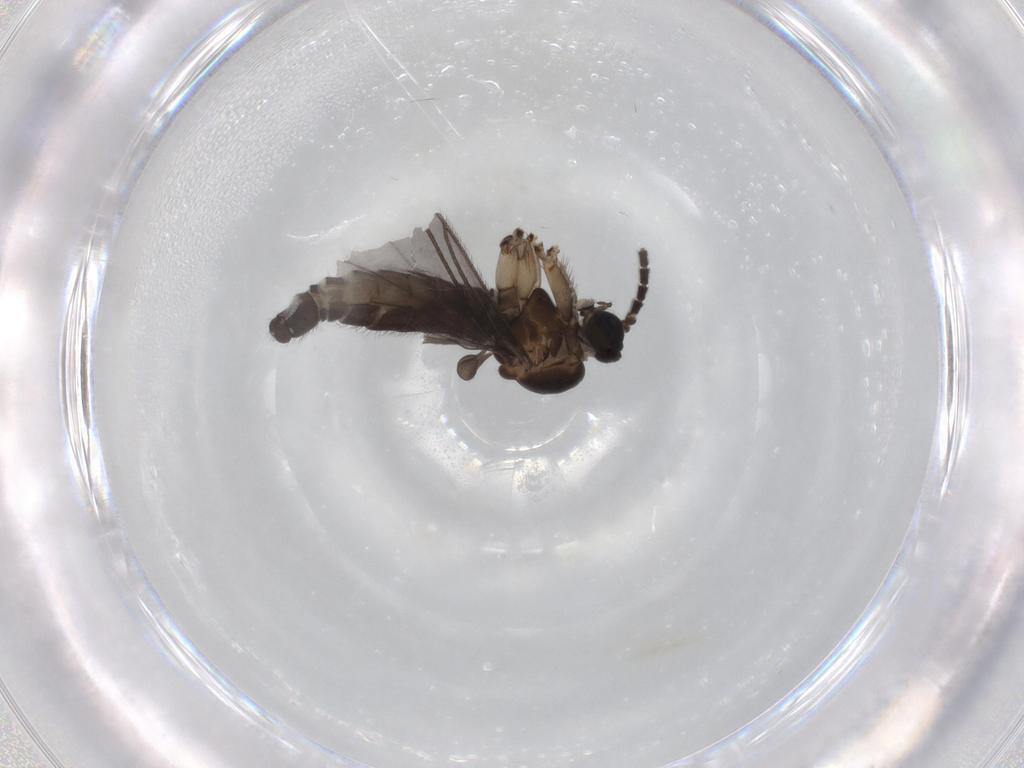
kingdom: Animalia
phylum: Arthropoda
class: Insecta
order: Diptera
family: Sciaridae
